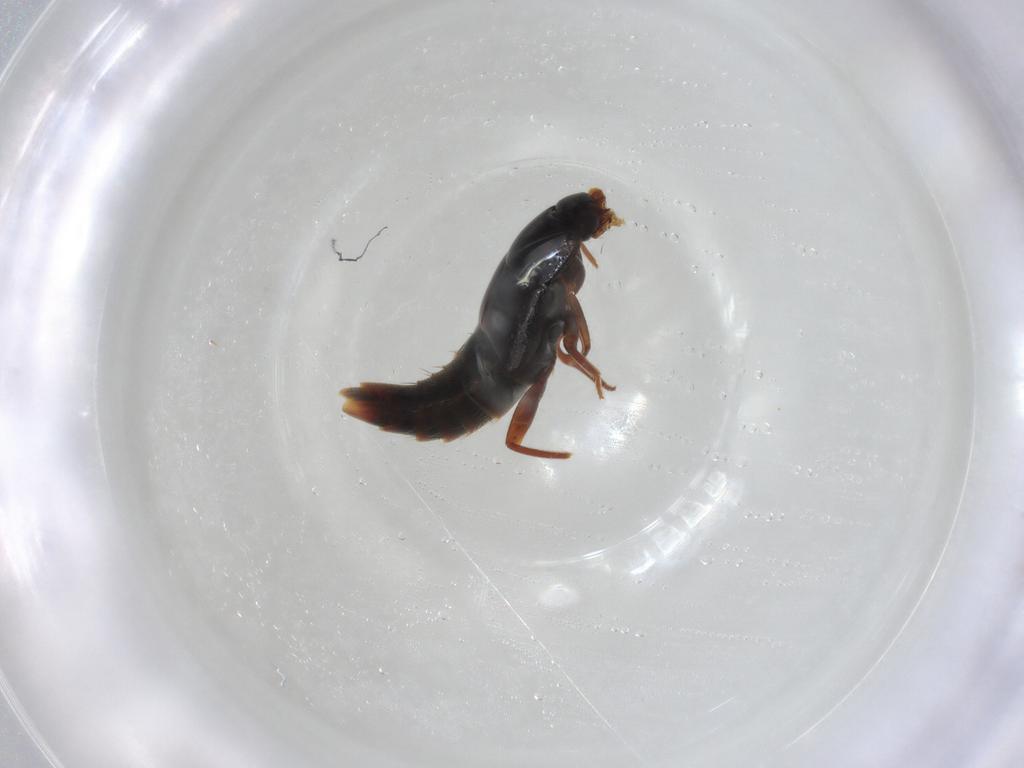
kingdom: Animalia
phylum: Arthropoda
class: Insecta
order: Coleoptera
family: Staphylinidae
